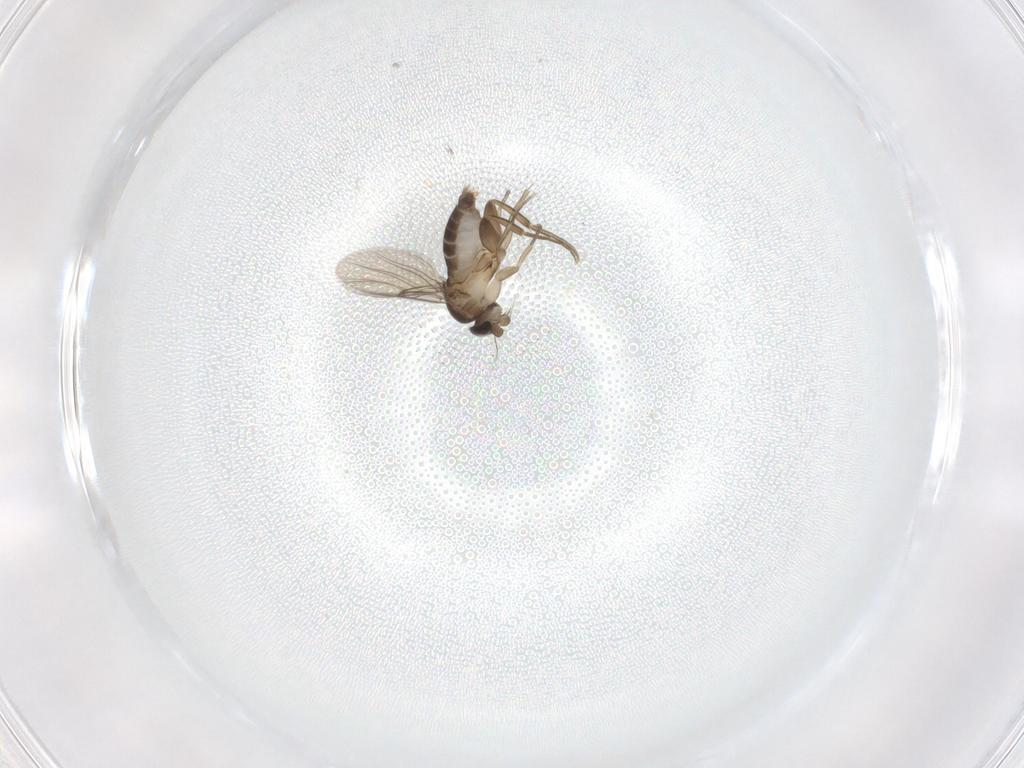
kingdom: Animalia
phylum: Arthropoda
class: Insecta
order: Diptera
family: Phoridae
